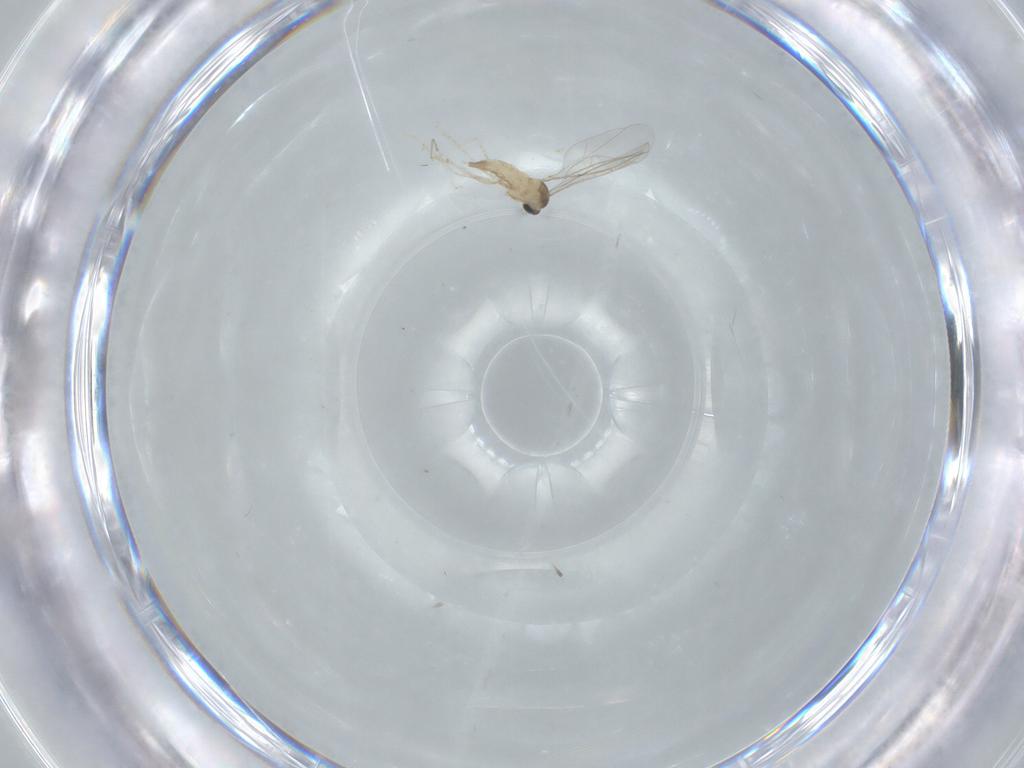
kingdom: Animalia
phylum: Arthropoda
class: Insecta
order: Diptera
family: Cecidomyiidae
